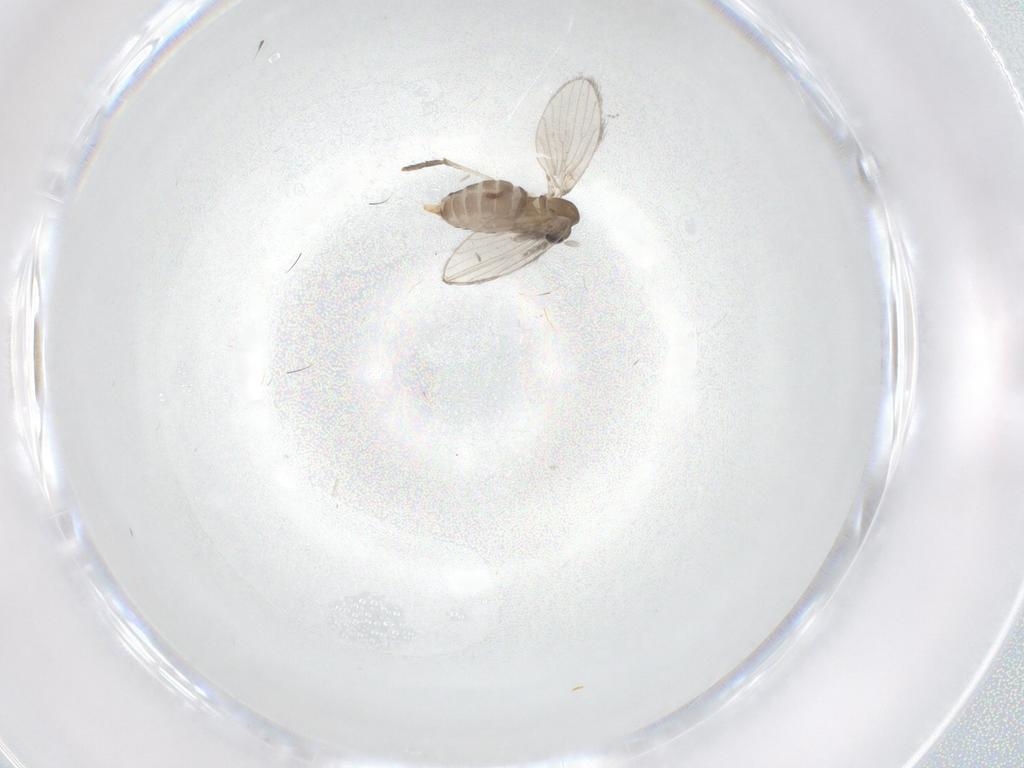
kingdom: Animalia
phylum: Arthropoda
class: Insecta
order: Diptera
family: Psychodidae
